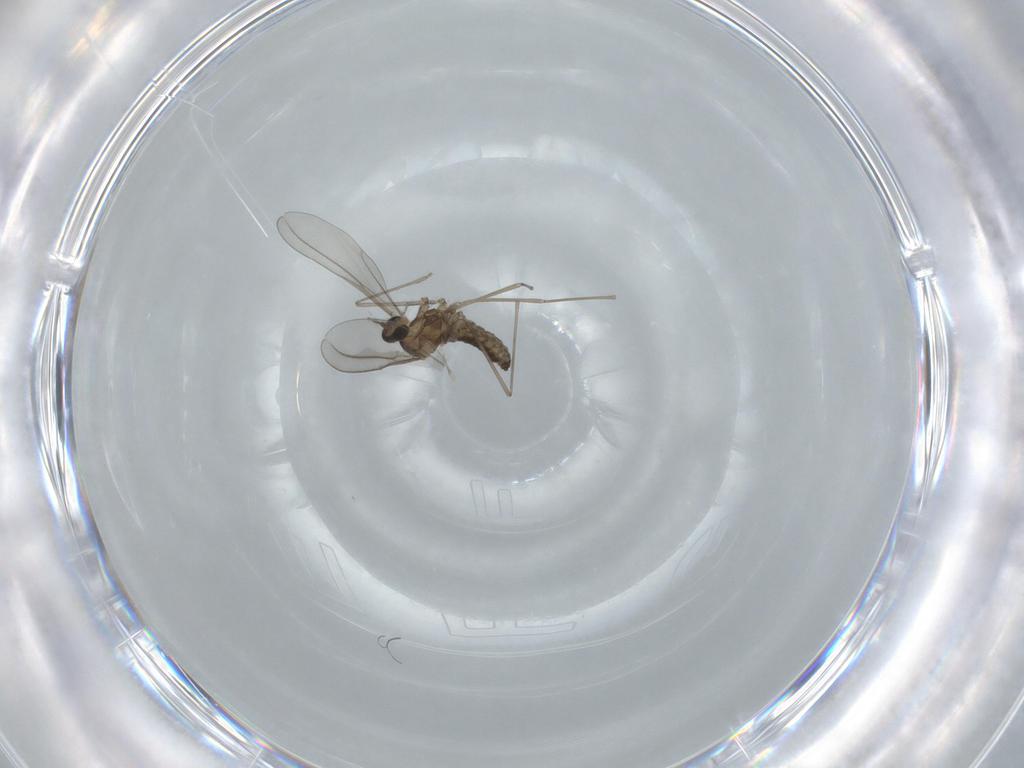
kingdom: Animalia
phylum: Arthropoda
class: Insecta
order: Diptera
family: Cecidomyiidae
